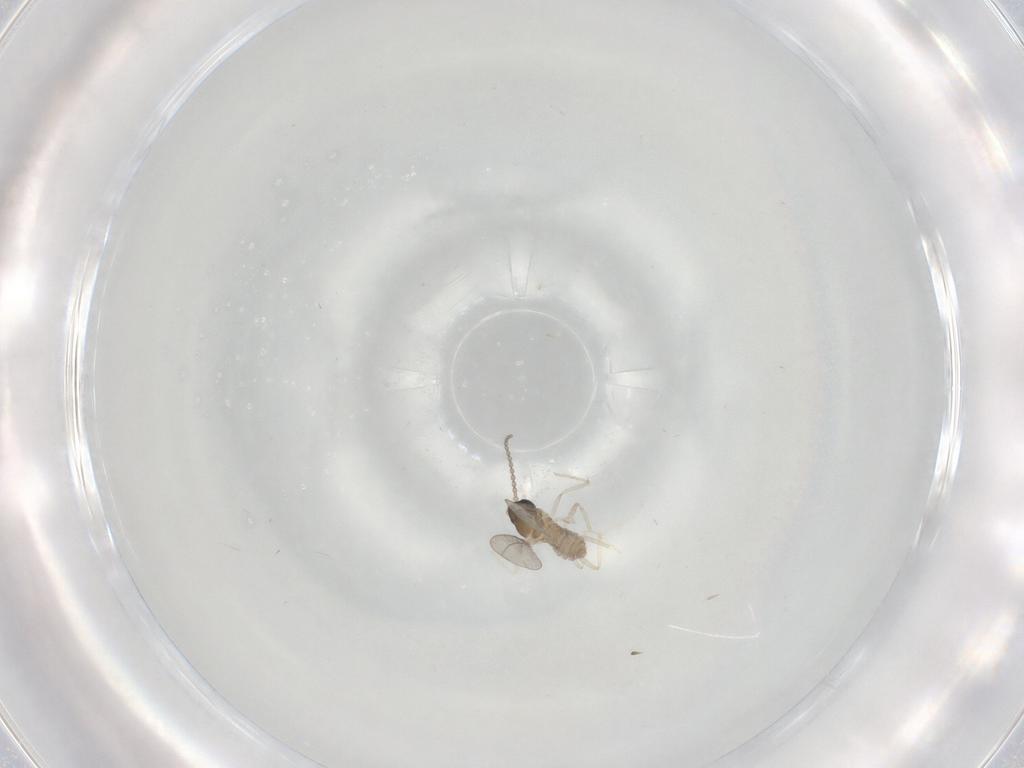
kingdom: Animalia
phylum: Arthropoda
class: Insecta
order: Diptera
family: Cecidomyiidae
